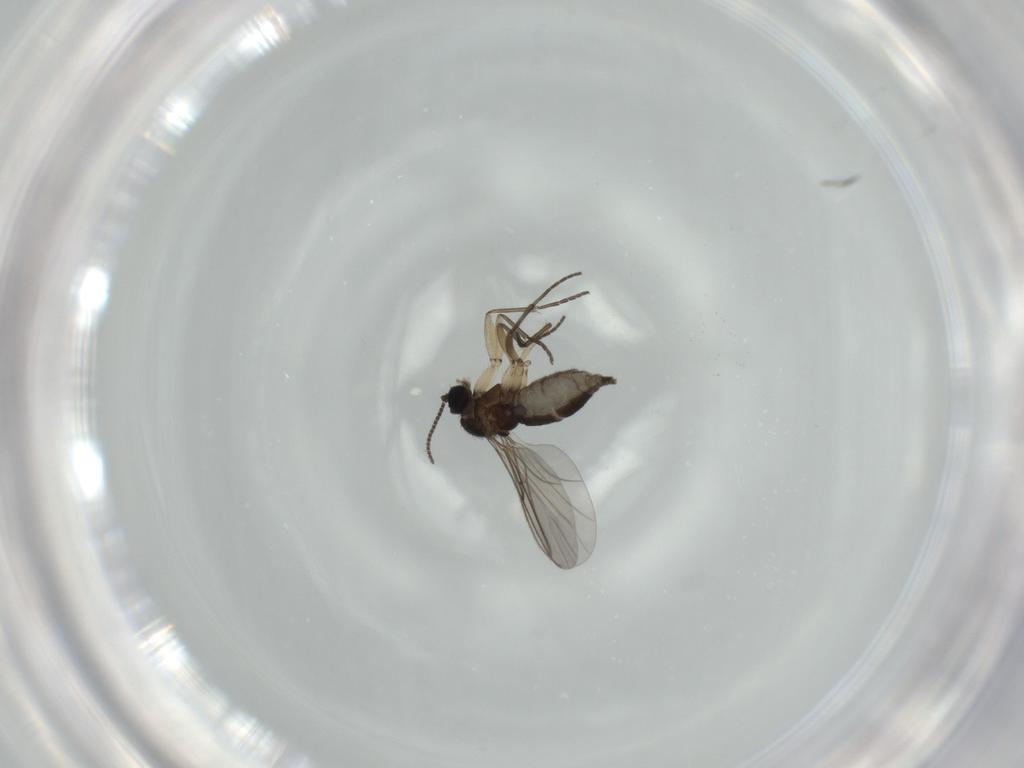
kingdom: Animalia
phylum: Arthropoda
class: Insecta
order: Diptera
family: Sciaridae
